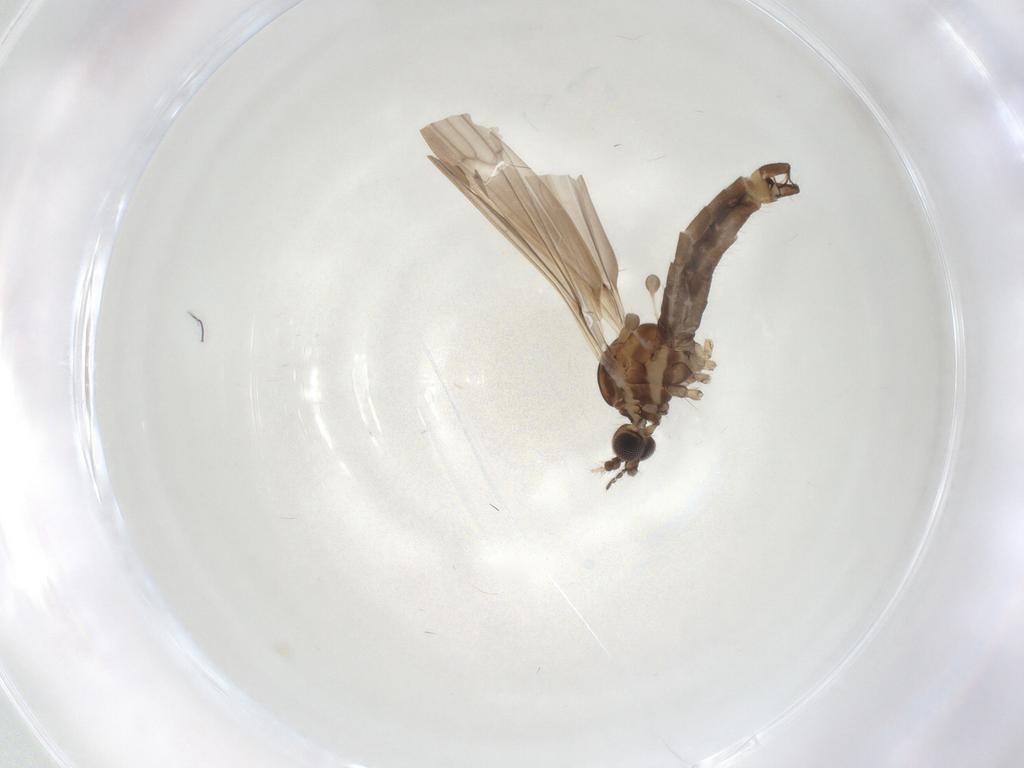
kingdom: Animalia
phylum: Arthropoda
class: Insecta
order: Diptera
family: Limoniidae
